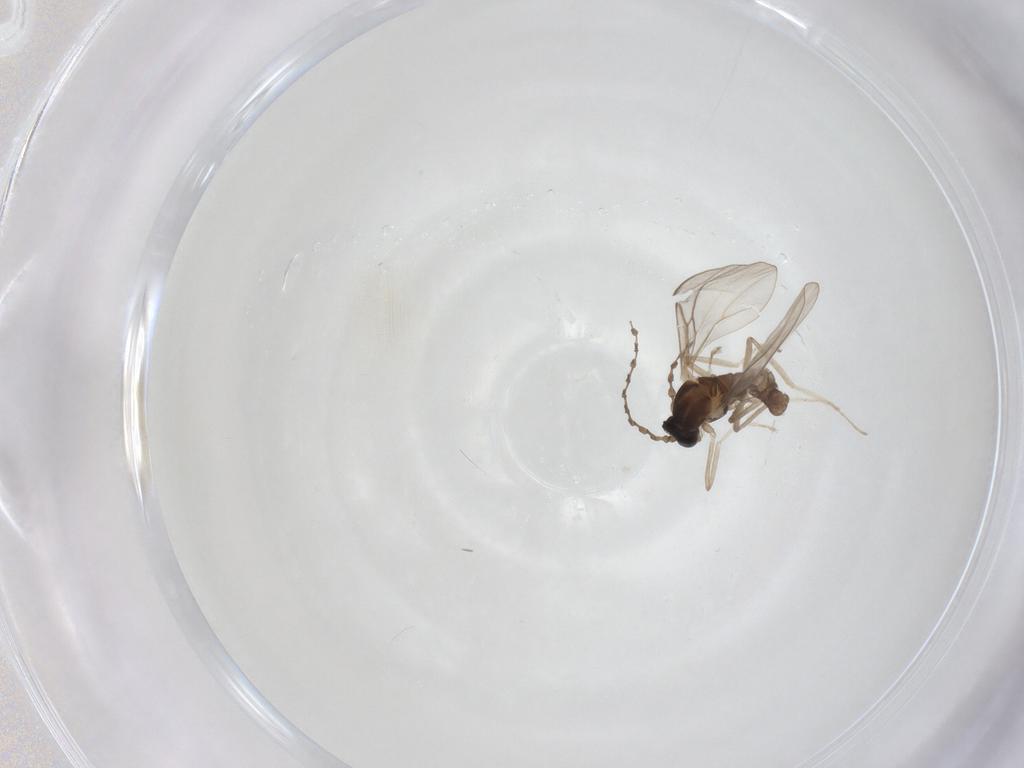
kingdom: Animalia
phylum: Arthropoda
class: Insecta
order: Diptera
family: Cecidomyiidae
